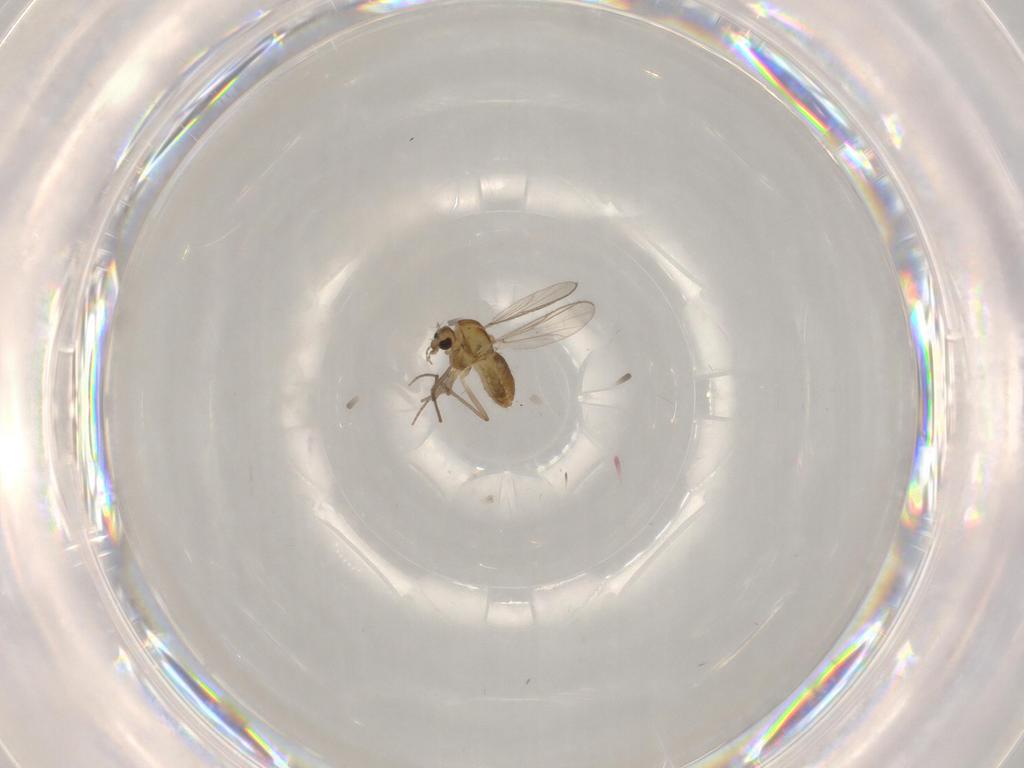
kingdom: Animalia
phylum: Arthropoda
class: Insecta
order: Diptera
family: Chironomidae
